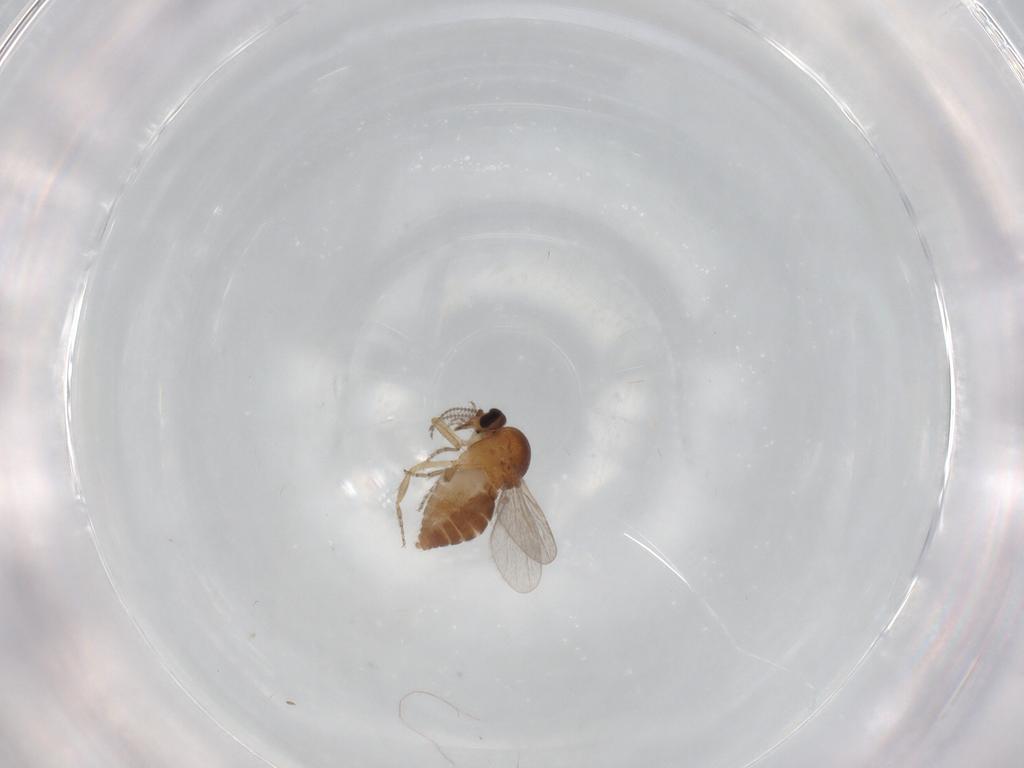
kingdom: Animalia
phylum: Arthropoda
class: Insecta
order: Diptera
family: Ceratopogonidae
